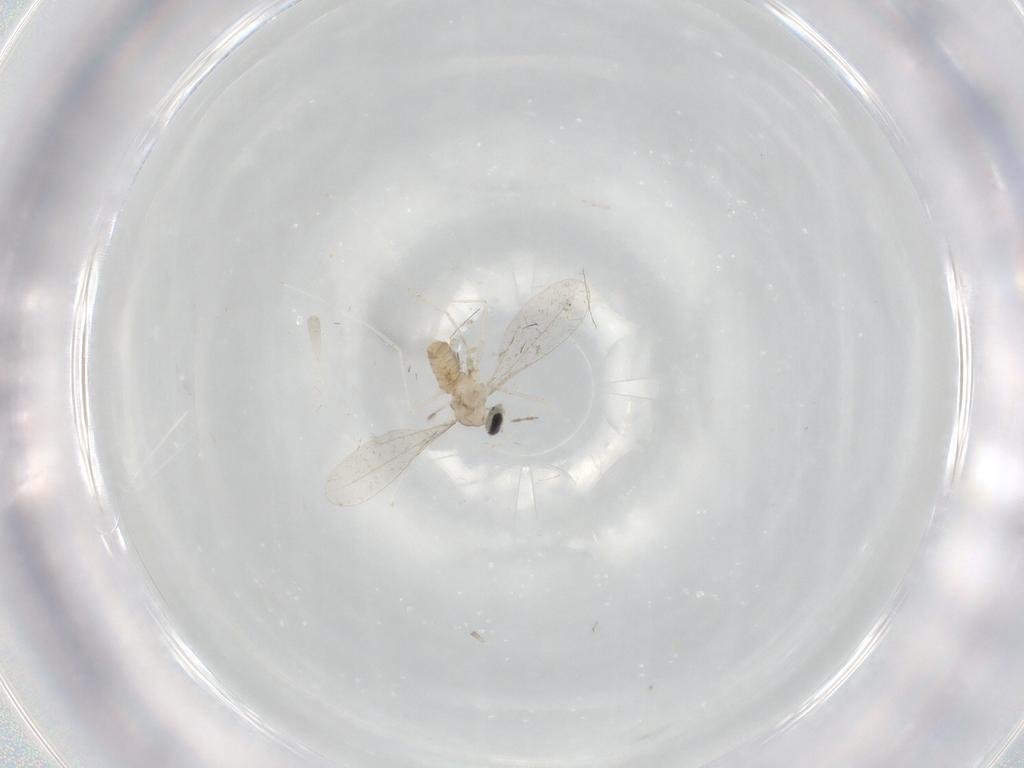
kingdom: Animalia
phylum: Arthropoda
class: Insecta
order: Diptera
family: Cecidomyiidae
